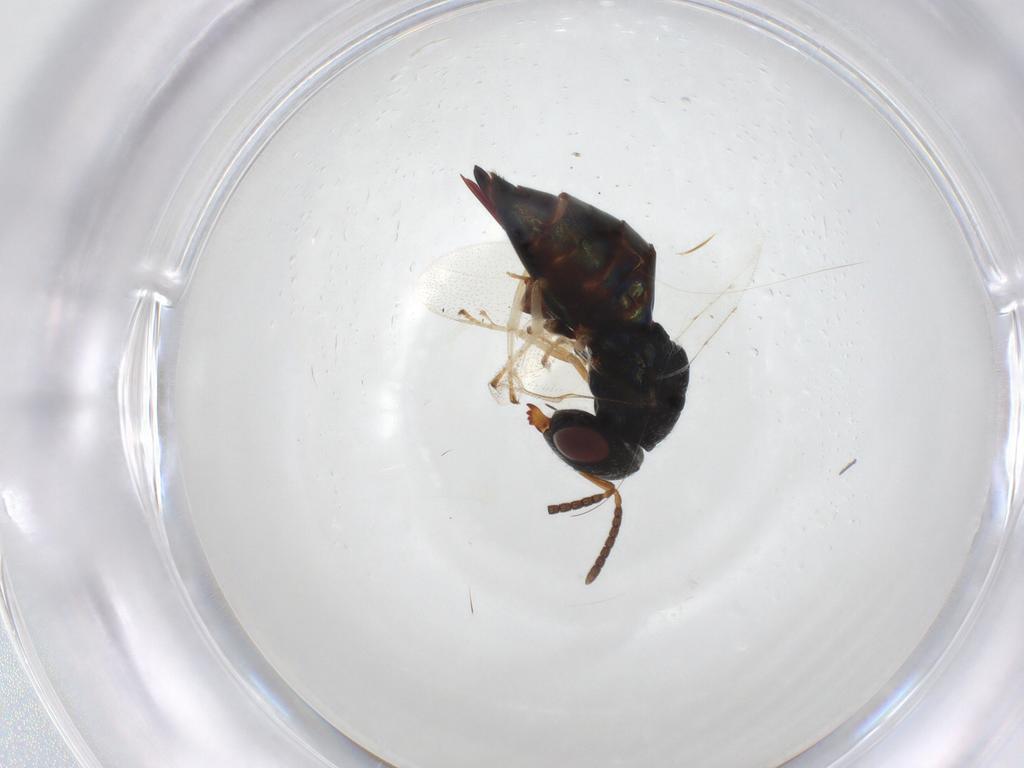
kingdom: Animalia
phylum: Arthropoda
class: Insecta
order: Hymenoptera
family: Pteromalidae
